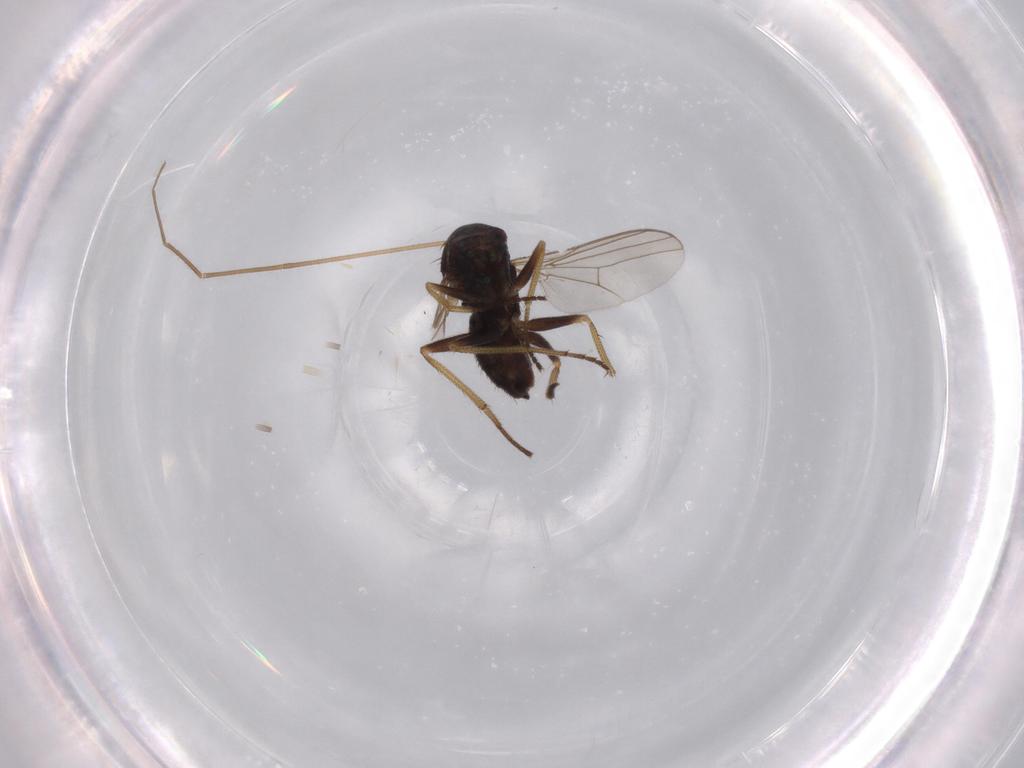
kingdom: Animalia
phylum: Arthropoda
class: Insecta
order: Diptera
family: Dolichopodidae
